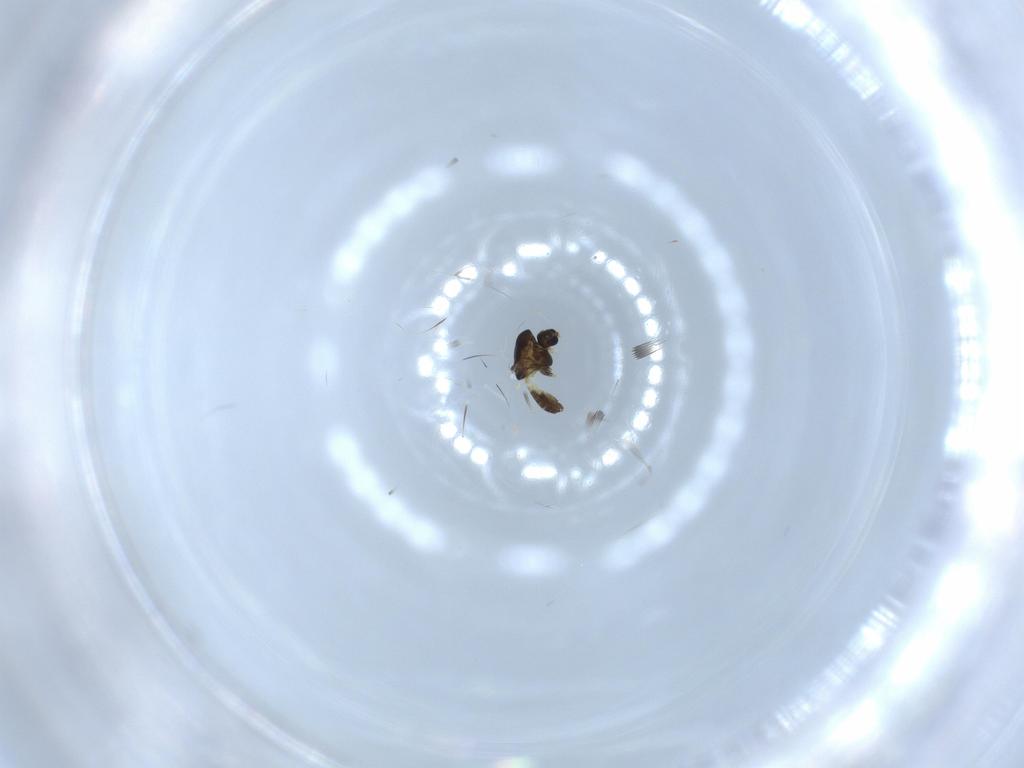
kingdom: Animalia
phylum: Arthropoda
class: Insecta
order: Diptera
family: Chironomidae
